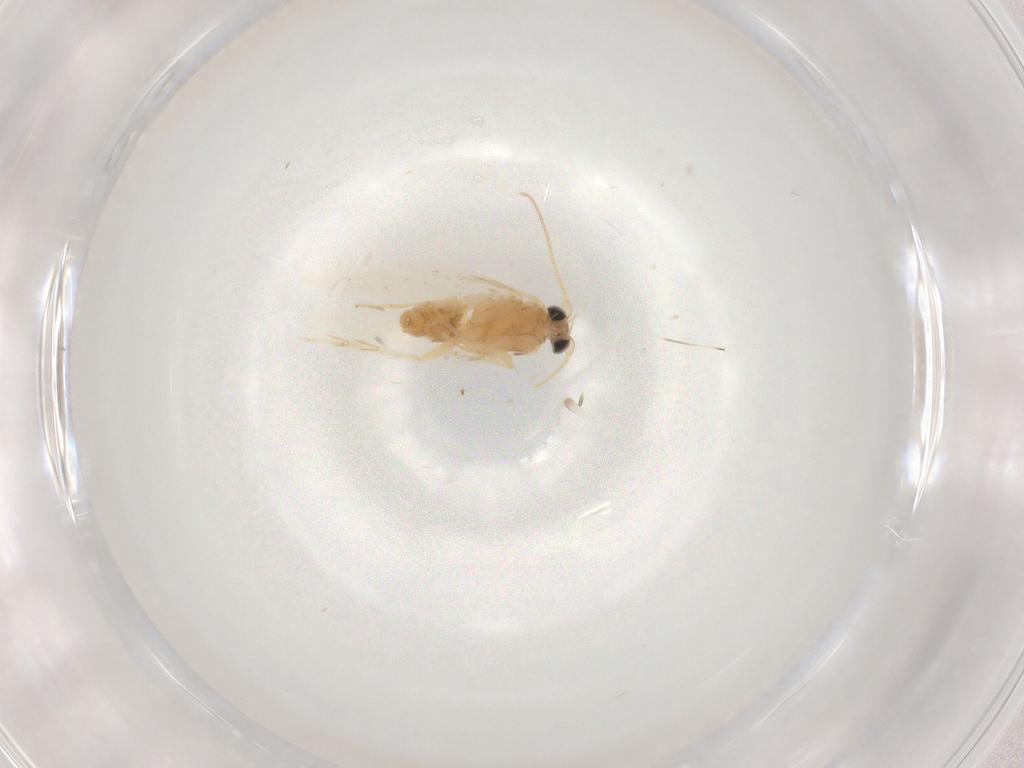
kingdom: Animalia
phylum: Arthropoda
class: Insecta
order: Lepidoptera
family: Nepticulidae
